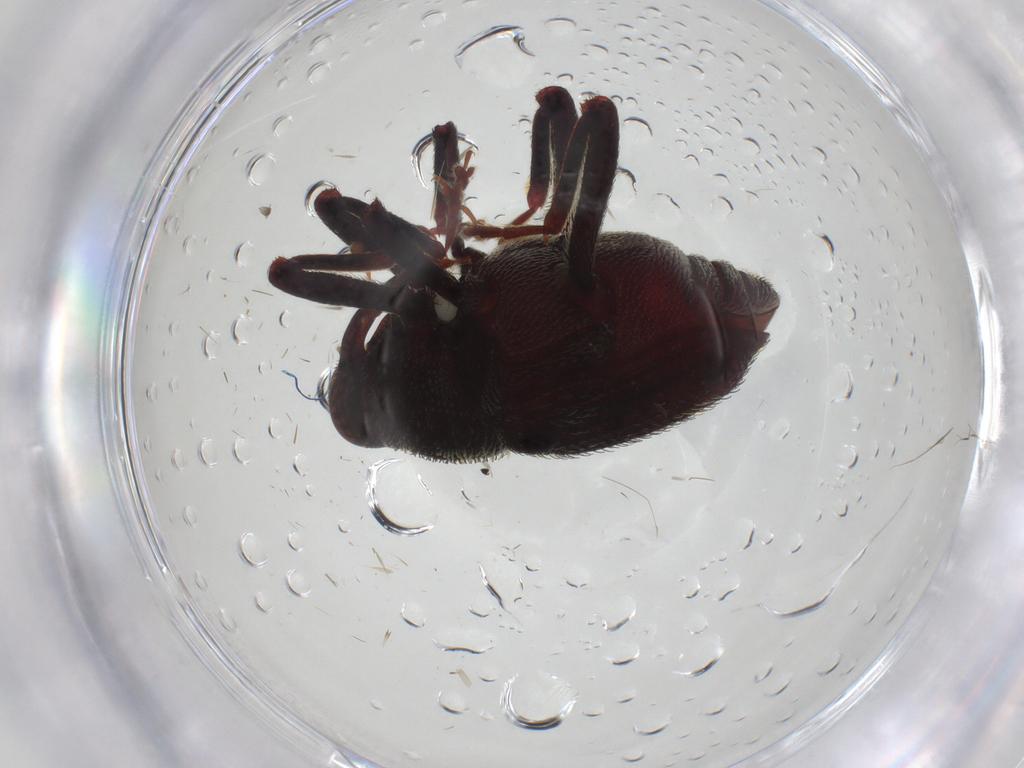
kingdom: Animalia
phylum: Arthropoda
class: Insecta
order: Coleoptera
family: Ptilodactylidae
